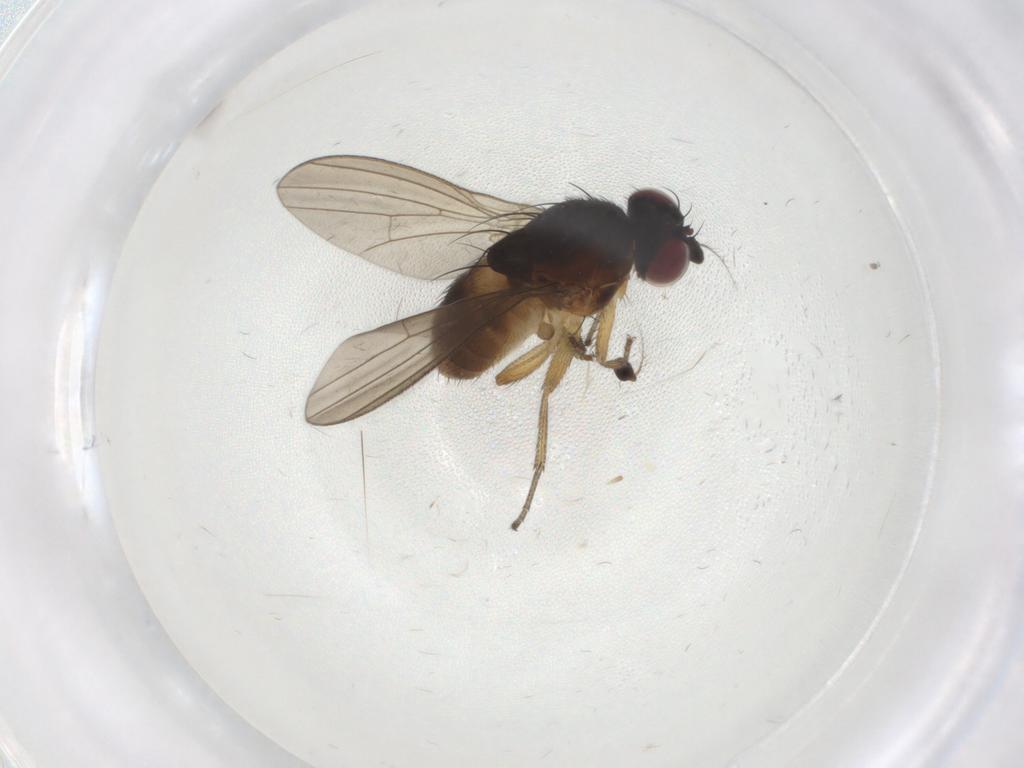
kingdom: Animalia
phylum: Arthropoda
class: Insecta
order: Diptera
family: Chironomidae
